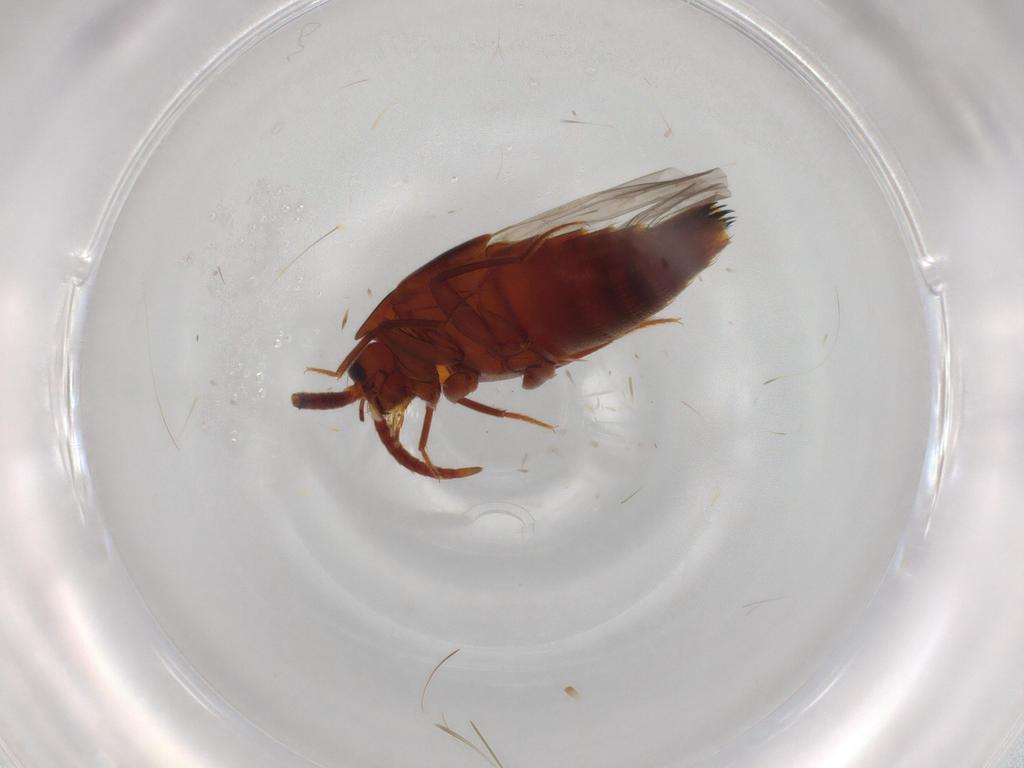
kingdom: Animalia
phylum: Arthropoda
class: Insecta
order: Coleoptera
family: Staphylinidae
